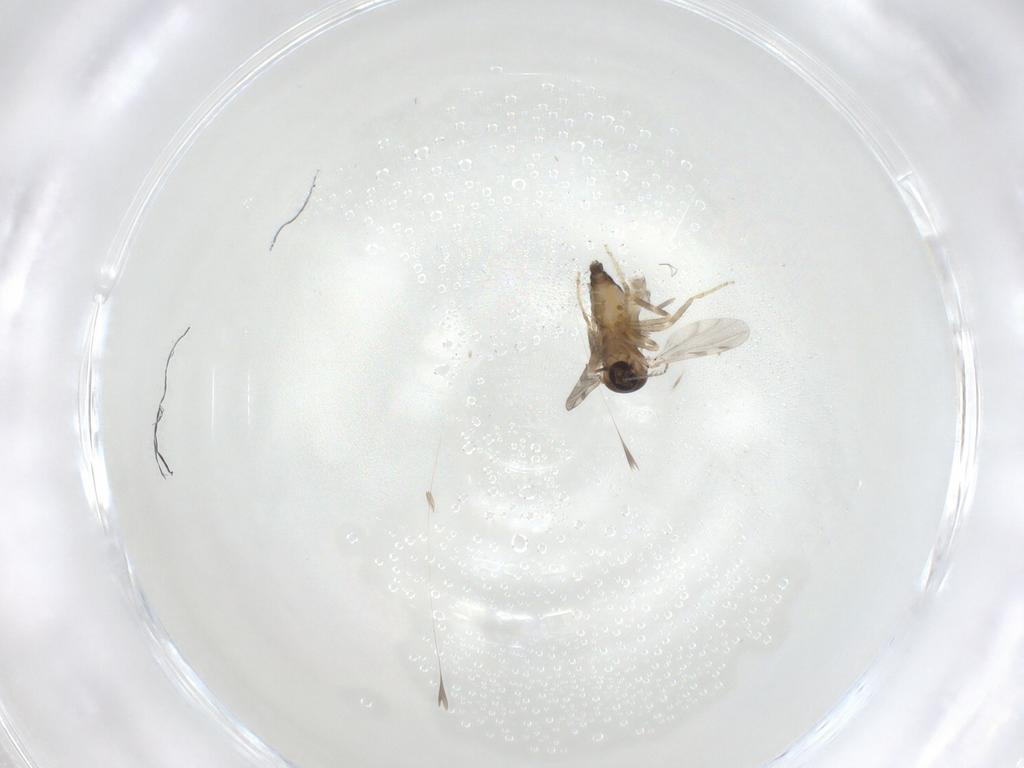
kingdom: Animalia
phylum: Arthropoda
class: Insecta
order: Diptera
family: Ceratopogonidae
